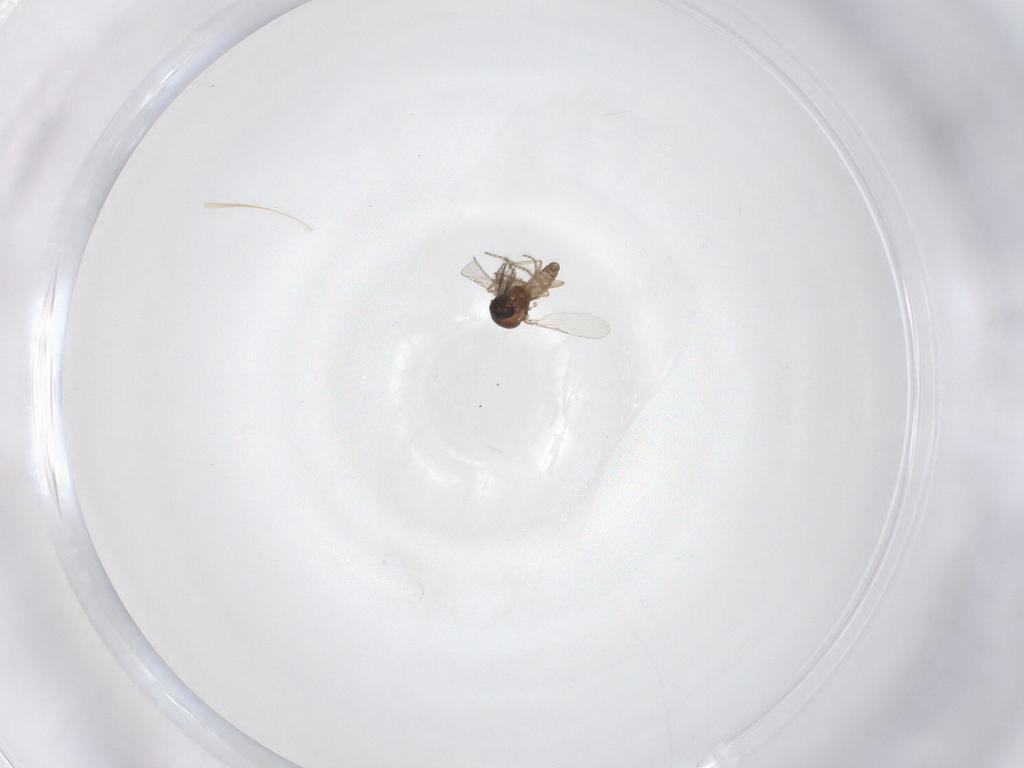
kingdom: Animalia
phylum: Arthropoda
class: Insecta
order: Diptera
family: Ceratopogonidae
